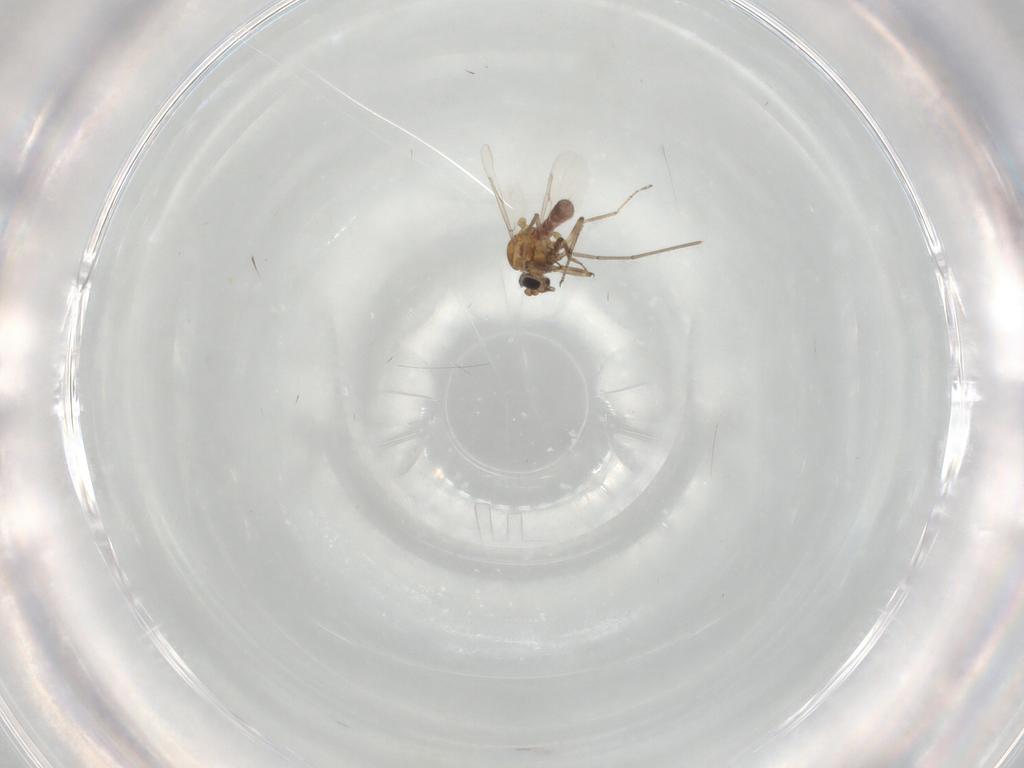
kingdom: Animalia
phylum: Arthropoda
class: Insecta
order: Diptera
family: Ceratopogonidae
